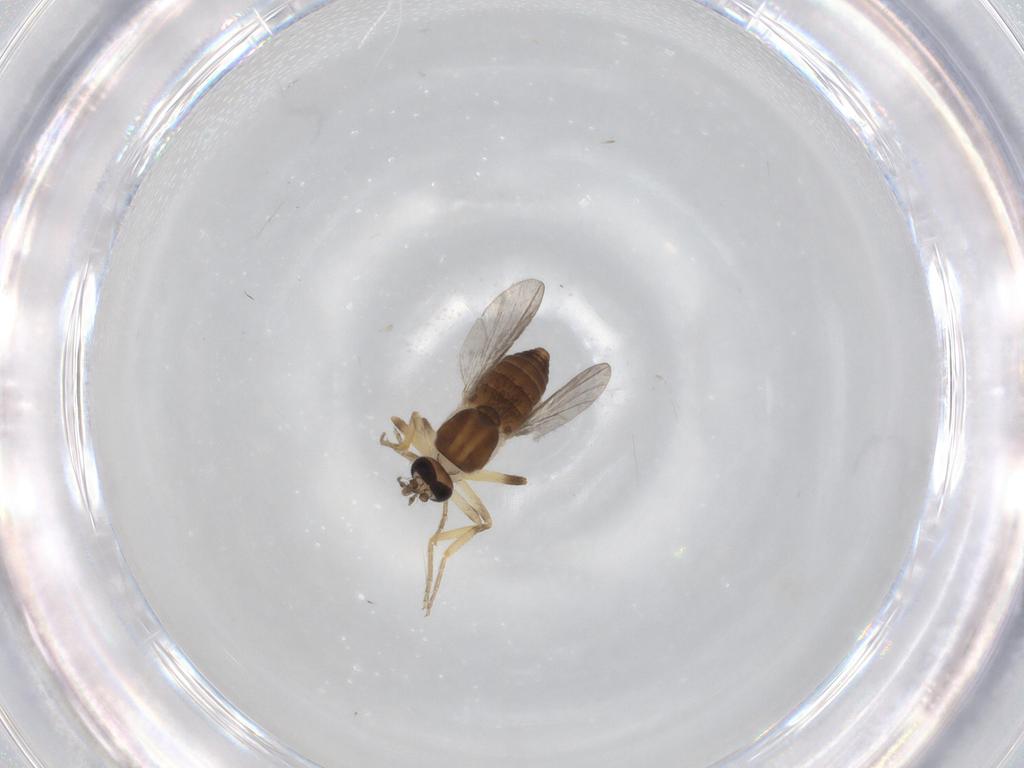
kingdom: Animalia
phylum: Arthropoda
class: Insecta
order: Diptera
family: Ceratopogonidae
